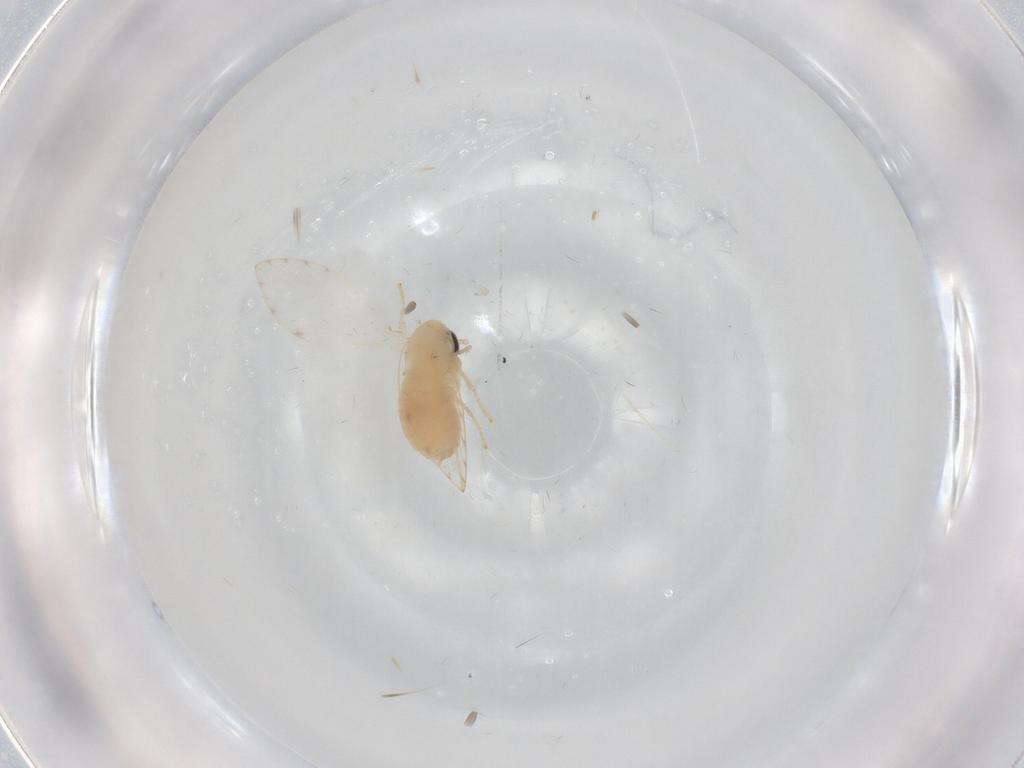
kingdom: Animalia
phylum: Arthropoda
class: Insecta
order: Diptera
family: Psychodidae
